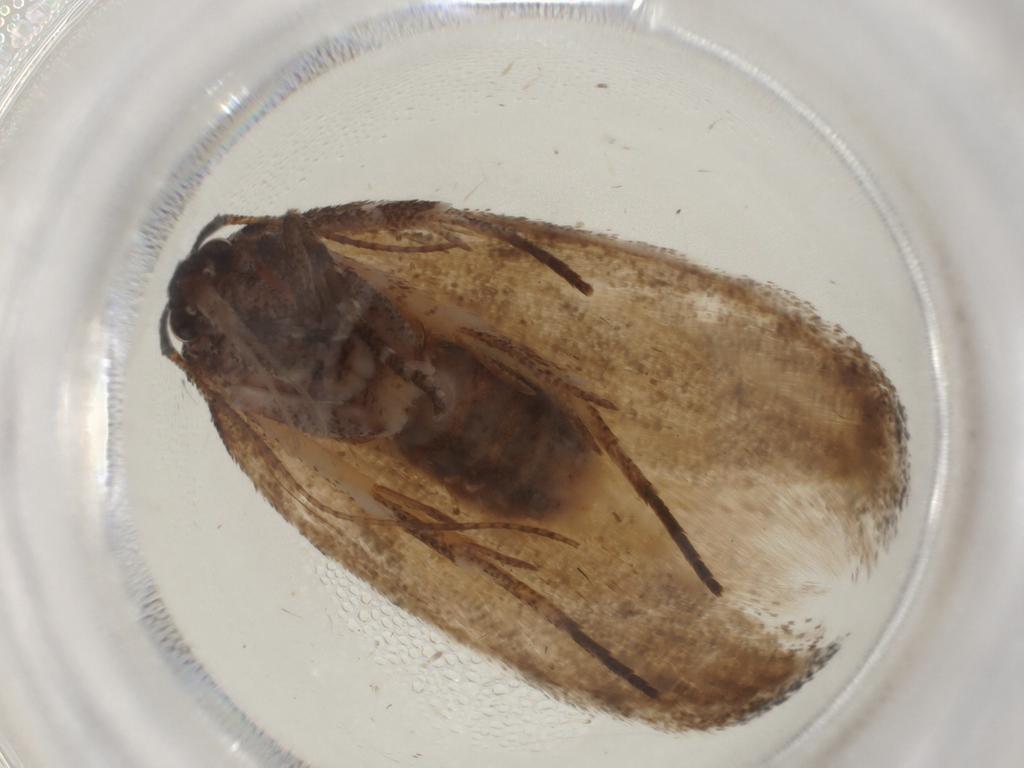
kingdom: Animalia
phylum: Arthropoda
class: Insecta
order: Lepidoptera
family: Cosmopterigidae
